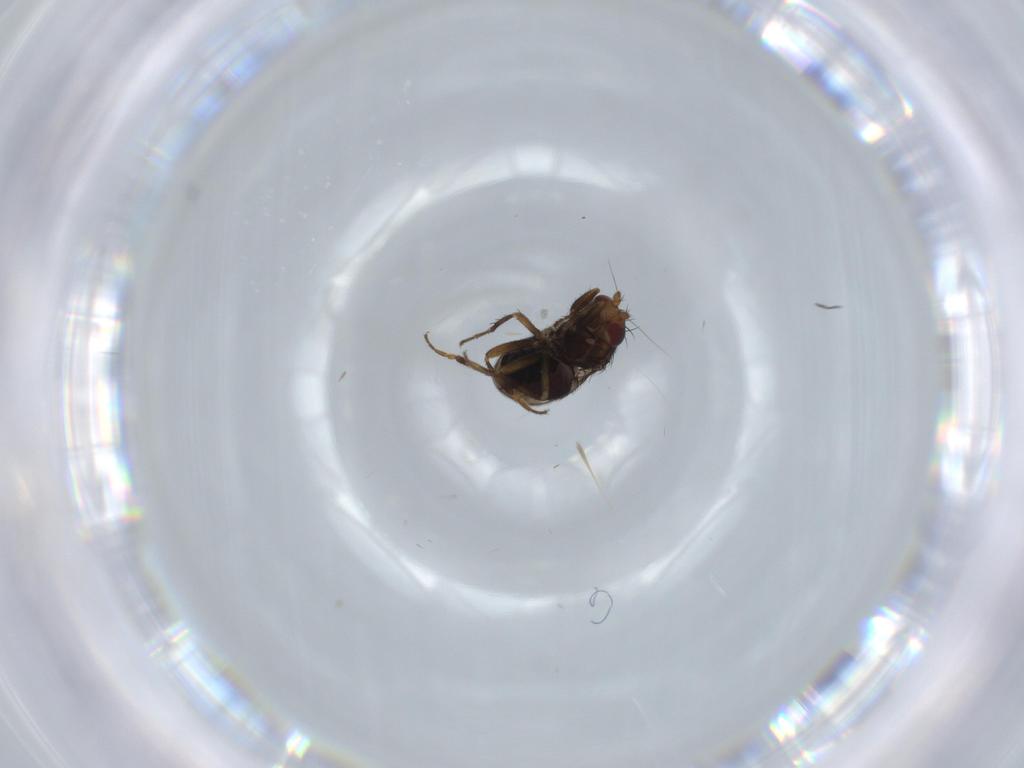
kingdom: Animalia
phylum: Arthropoda
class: Insecta
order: Diptera
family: Sphaeroceridae
